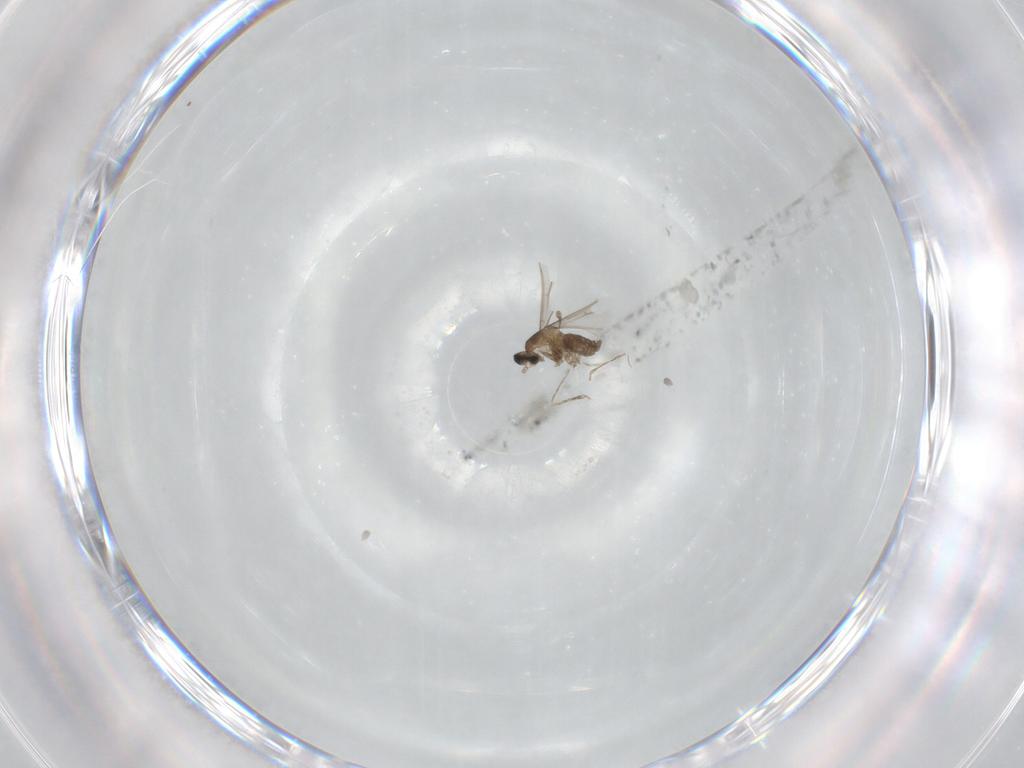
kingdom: Animalia
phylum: Arthropoda
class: Insecta
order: Diptera
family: Cecidomyiidae
